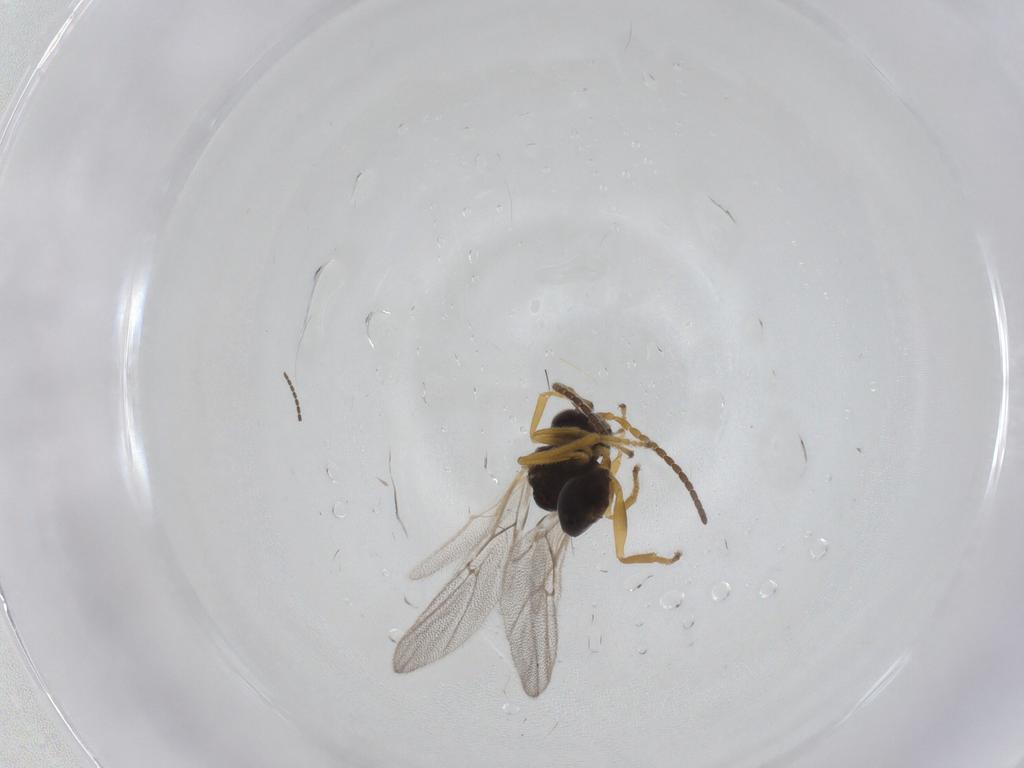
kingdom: Animalia
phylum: Arthropoda
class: Insecta
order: Hymenoptera
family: Cynipidae
